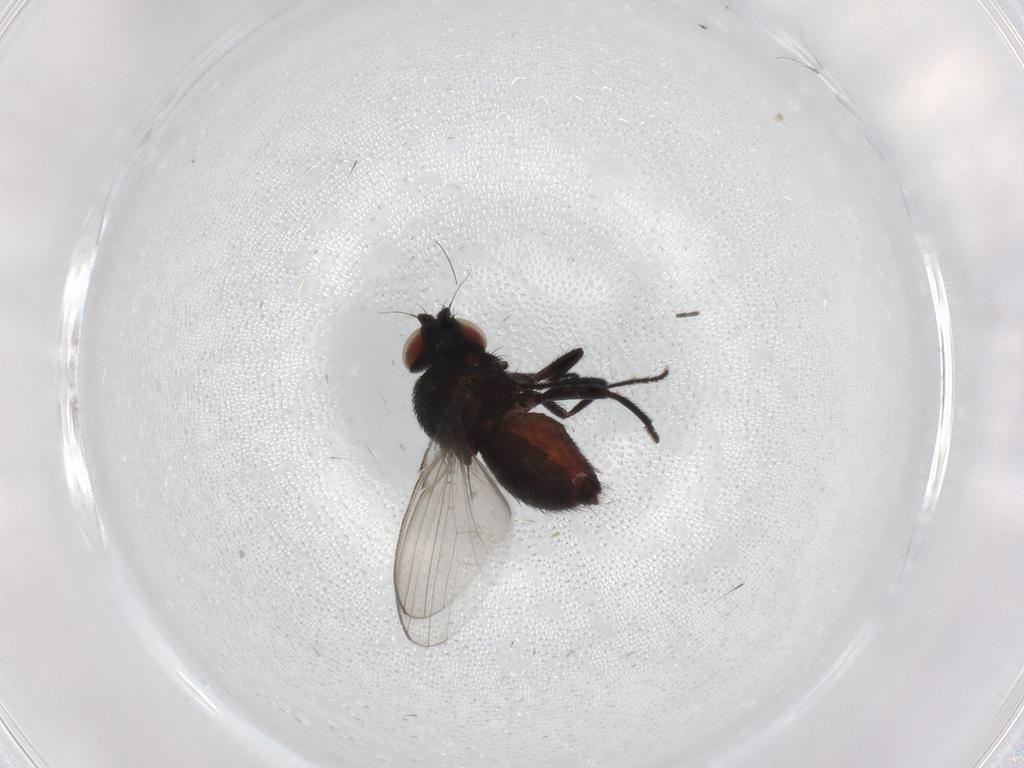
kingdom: Animalia
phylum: Arthropoda
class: Insecta
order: Diptera
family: Milichiidae
